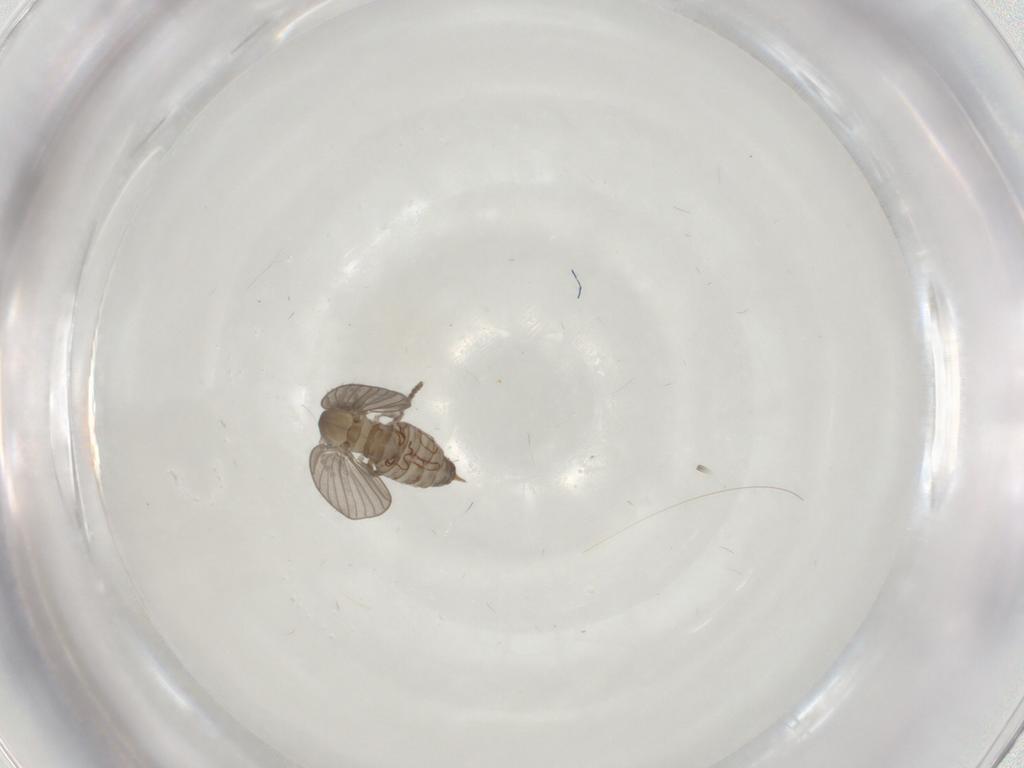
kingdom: Animalia
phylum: Arthropoda
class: Insecta
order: Diptera
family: Psychodidae
